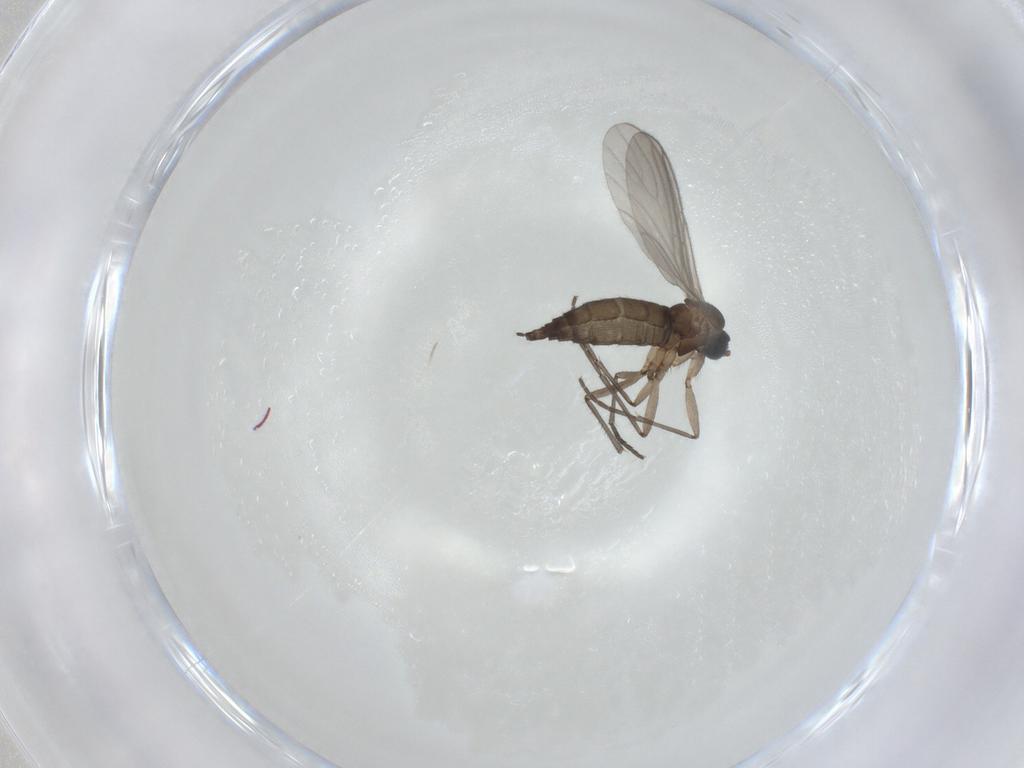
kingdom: Animalia
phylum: Arthropoda
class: Insecta
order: Diptera
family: Sciaridae
